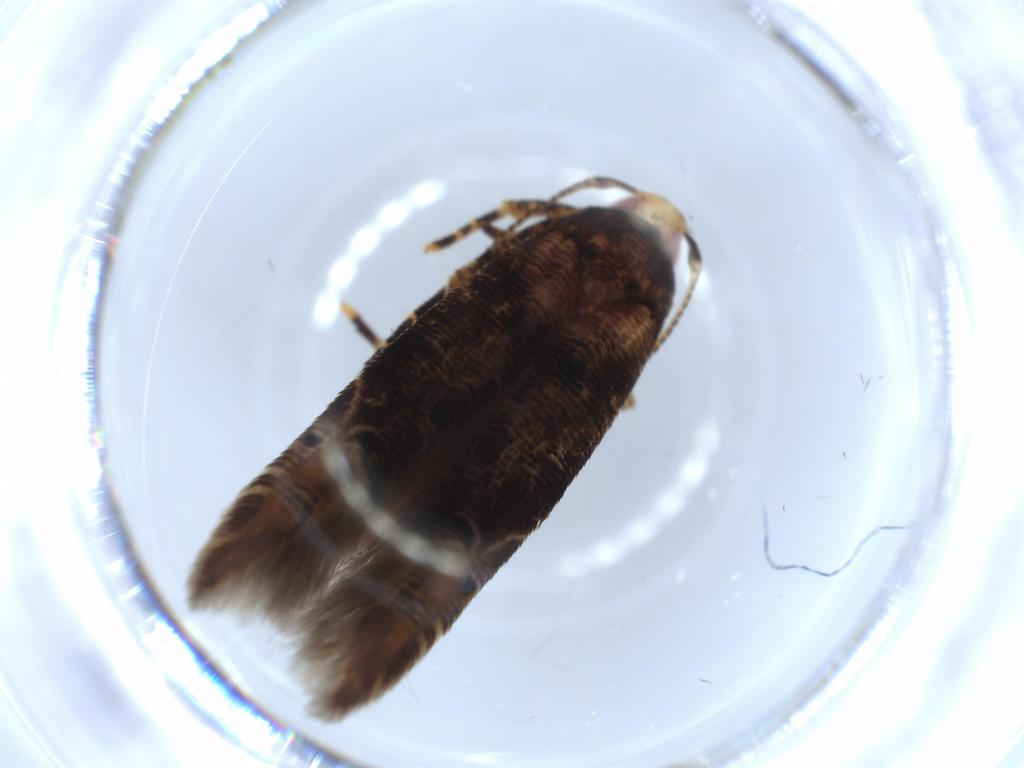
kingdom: Animalia
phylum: Arthropoda
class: Insecta
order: Lepidoptera
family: Tineidae
